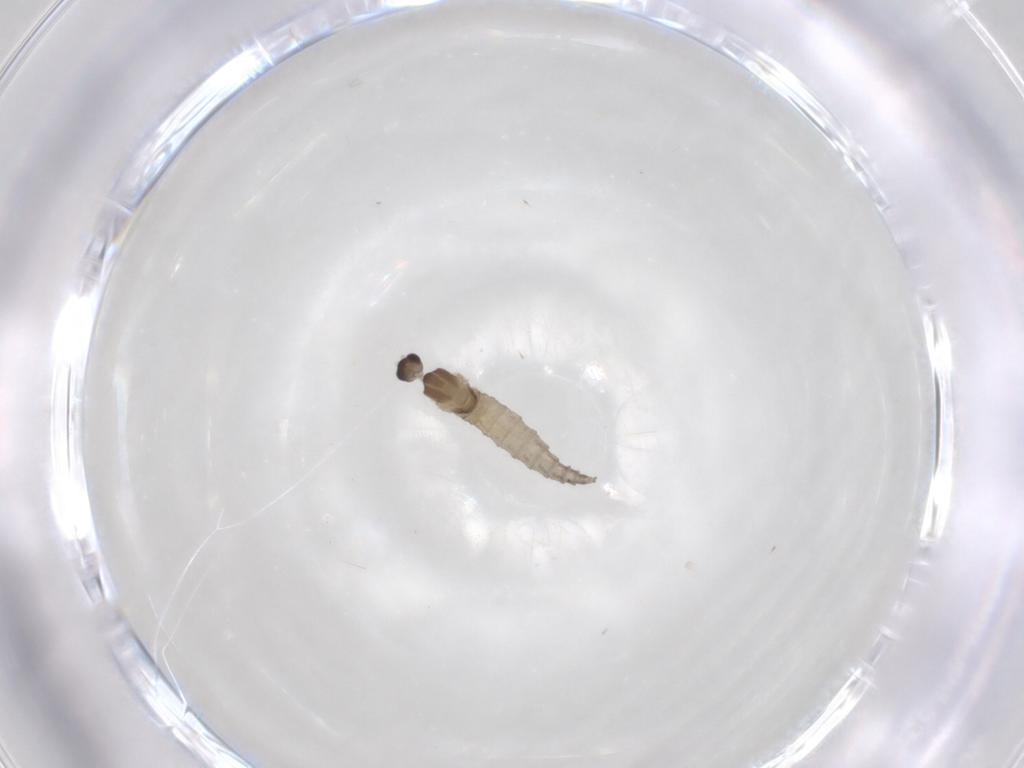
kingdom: Animalia
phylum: Arthropoda
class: Insecta
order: Diptera
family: Cecidomyiidae
